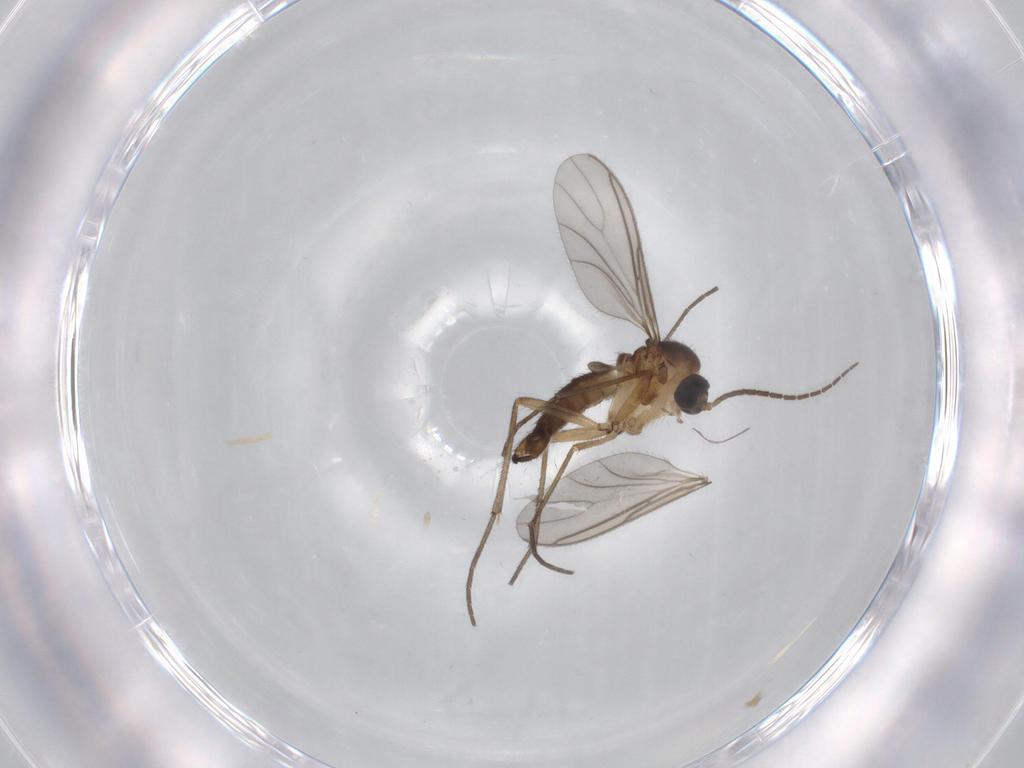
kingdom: Animalia
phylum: Arthropoda
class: Insecta
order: Diptera
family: Sciaridae
